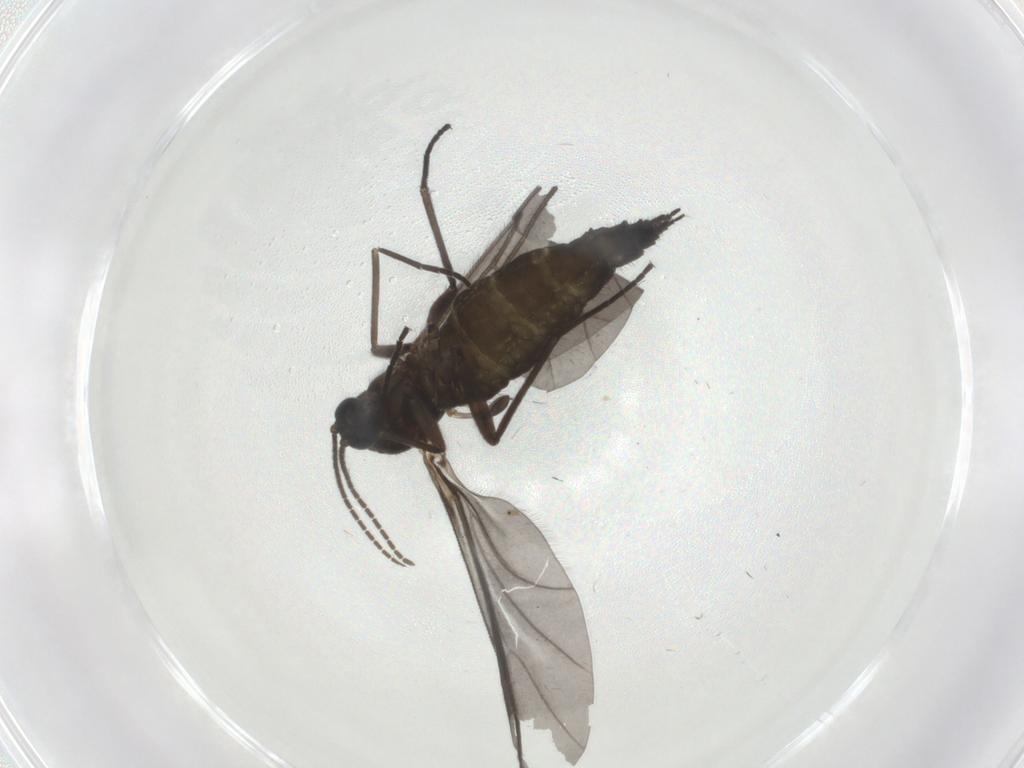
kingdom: Animalia
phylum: Arthropoda
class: Insecta
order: Diptera
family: Sciaridae
